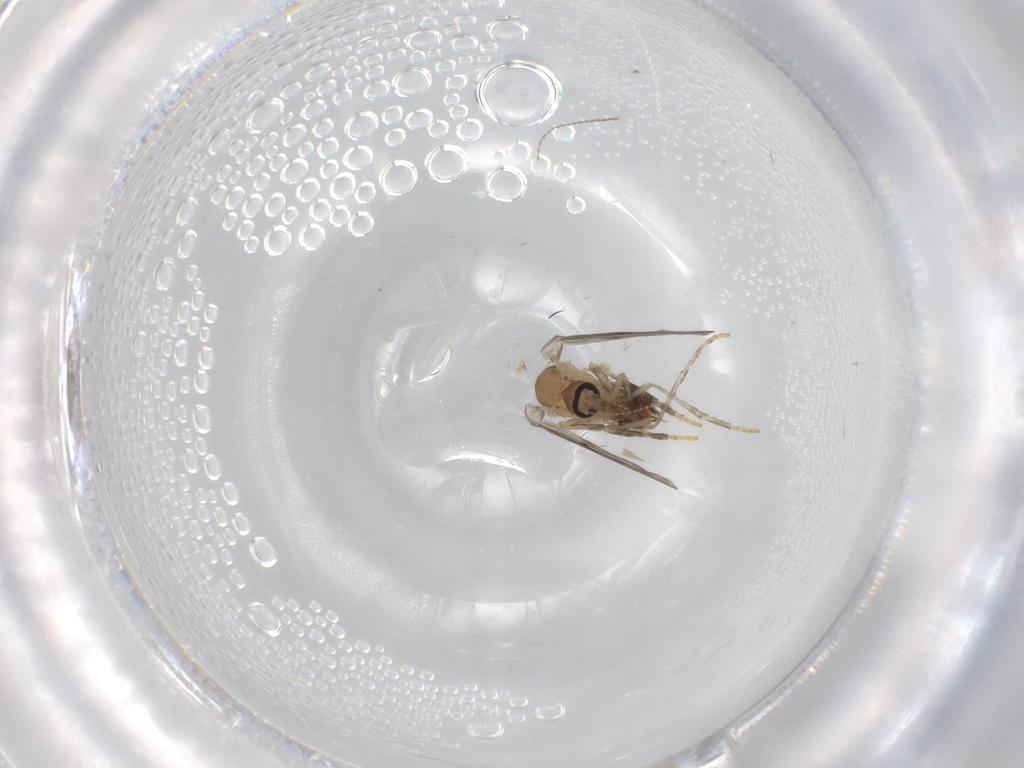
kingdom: Animalia
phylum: Arthropoda
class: Insecta
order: Diptera
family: Psychodidae
